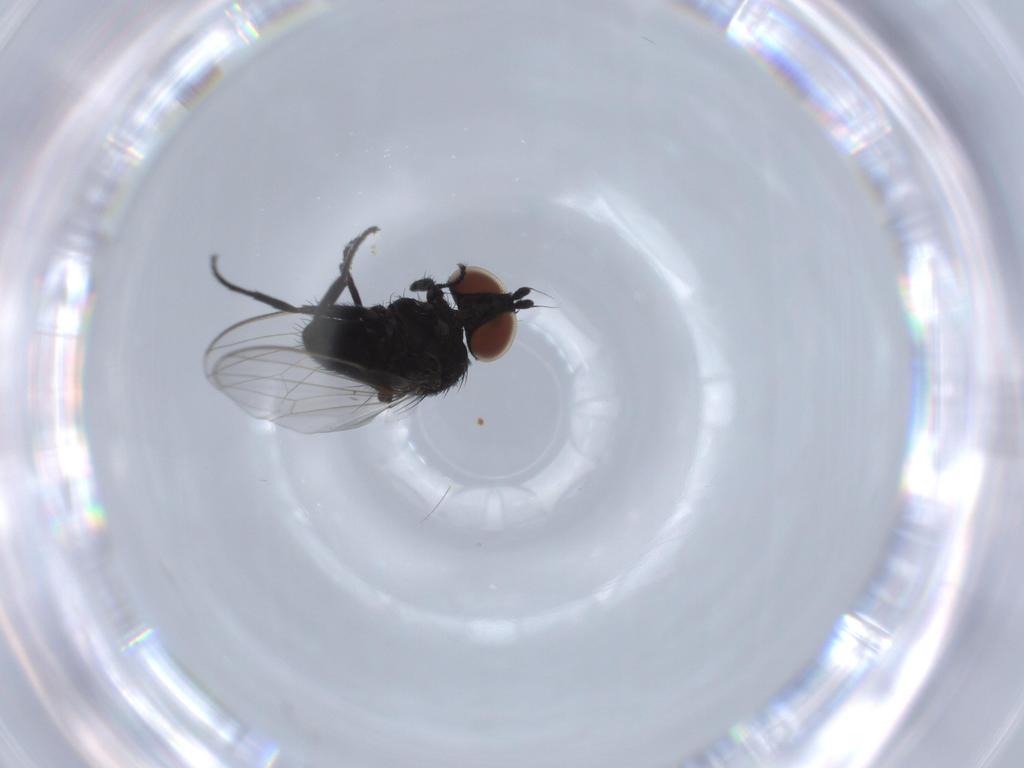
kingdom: Animalia
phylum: Arthropoda
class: Insecta
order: Diptera
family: Milichiidae
